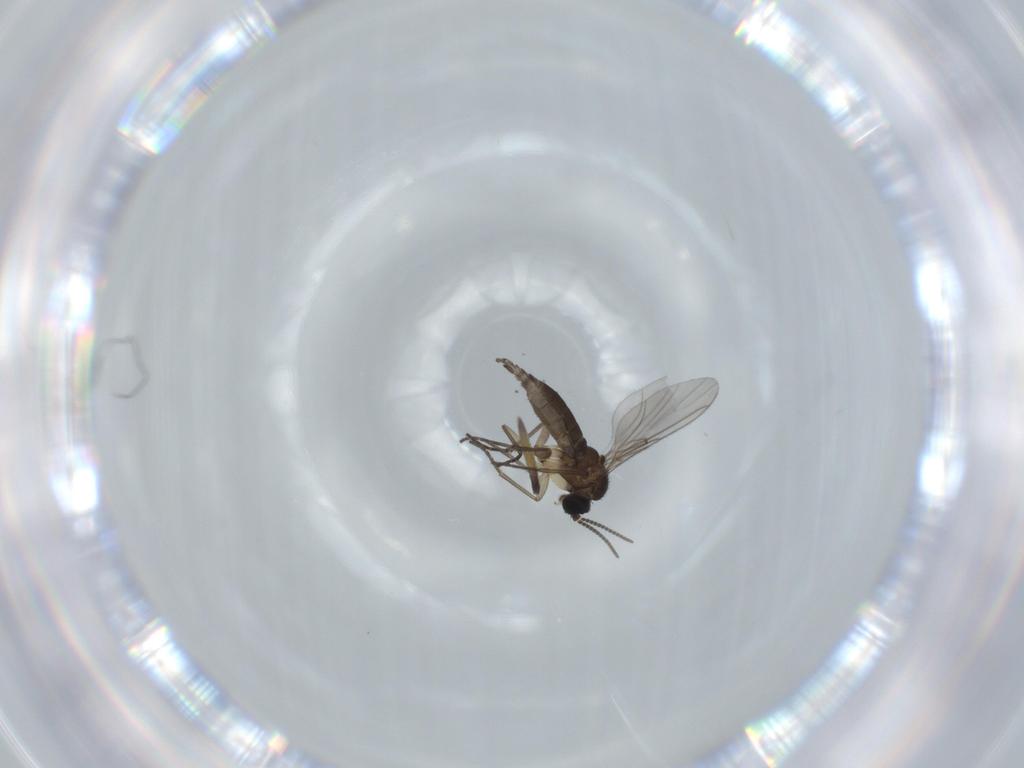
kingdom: Animalia
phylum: Arthropoda
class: Insecta
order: Diptera
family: Sciaridae
